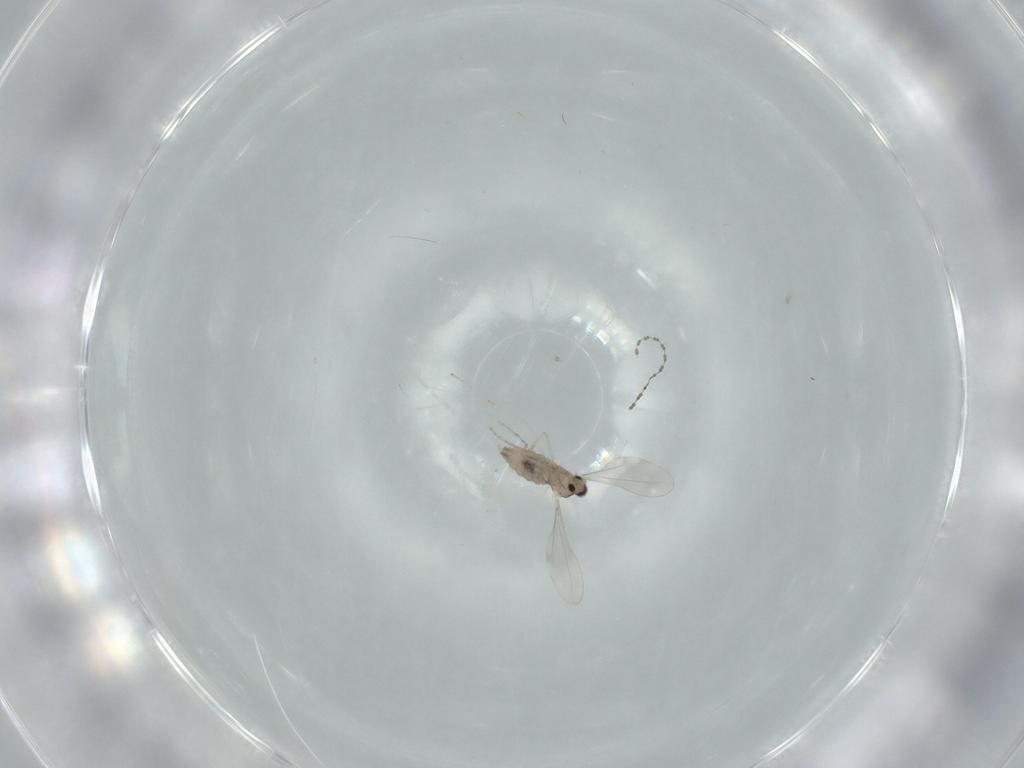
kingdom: Animalia
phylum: Arthropoda
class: Insecta
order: Diptera
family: Cecidomyiidae
